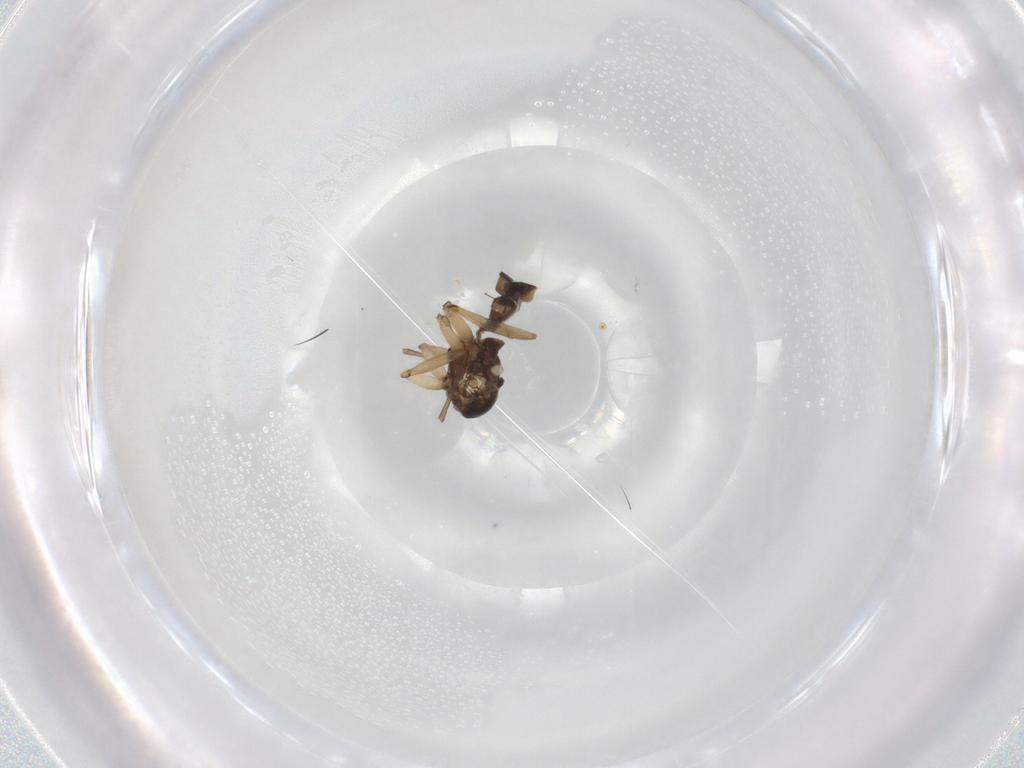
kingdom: Animalia
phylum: Arthropoda
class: Insecta
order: Diptera
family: Sciaridae
